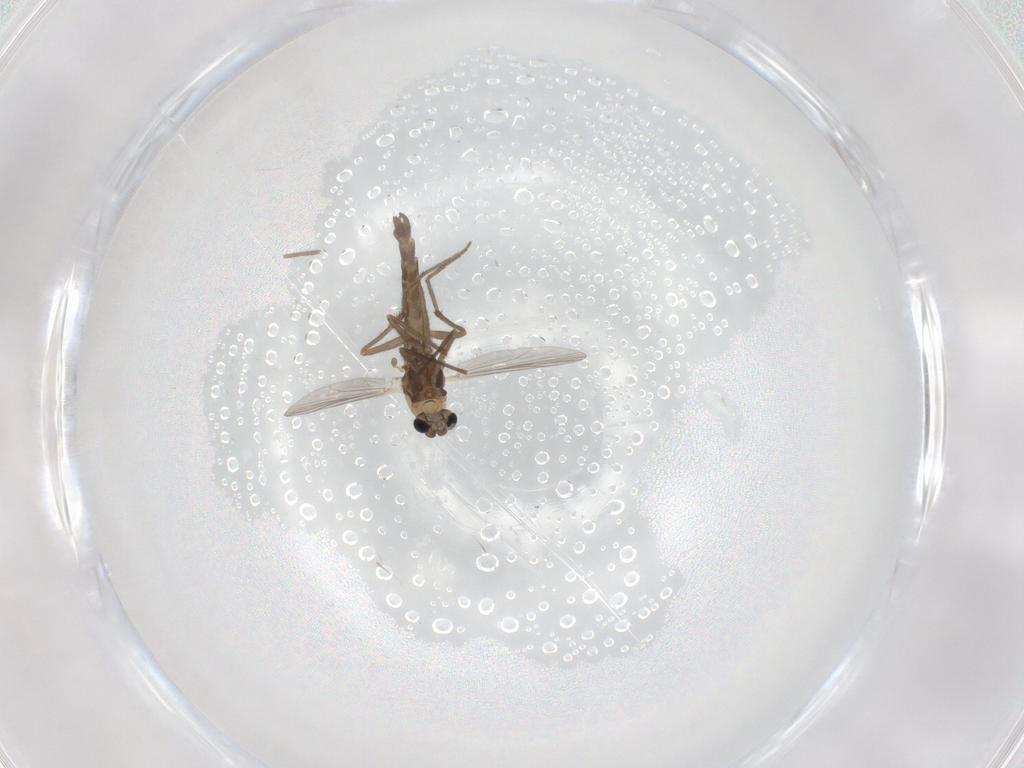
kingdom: Animalia
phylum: Arthropoda
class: Insecta
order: Diptera
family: Chironomidae
